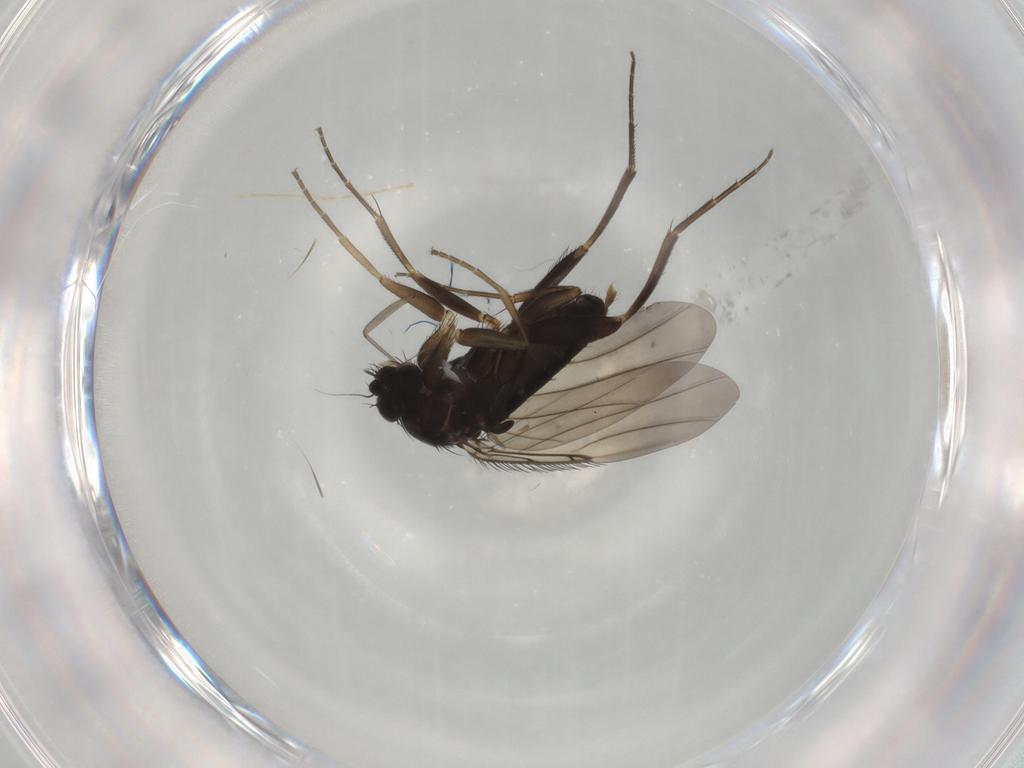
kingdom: Animalia
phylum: Arthropoda
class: Insecta
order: Diptera
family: Phoridae
